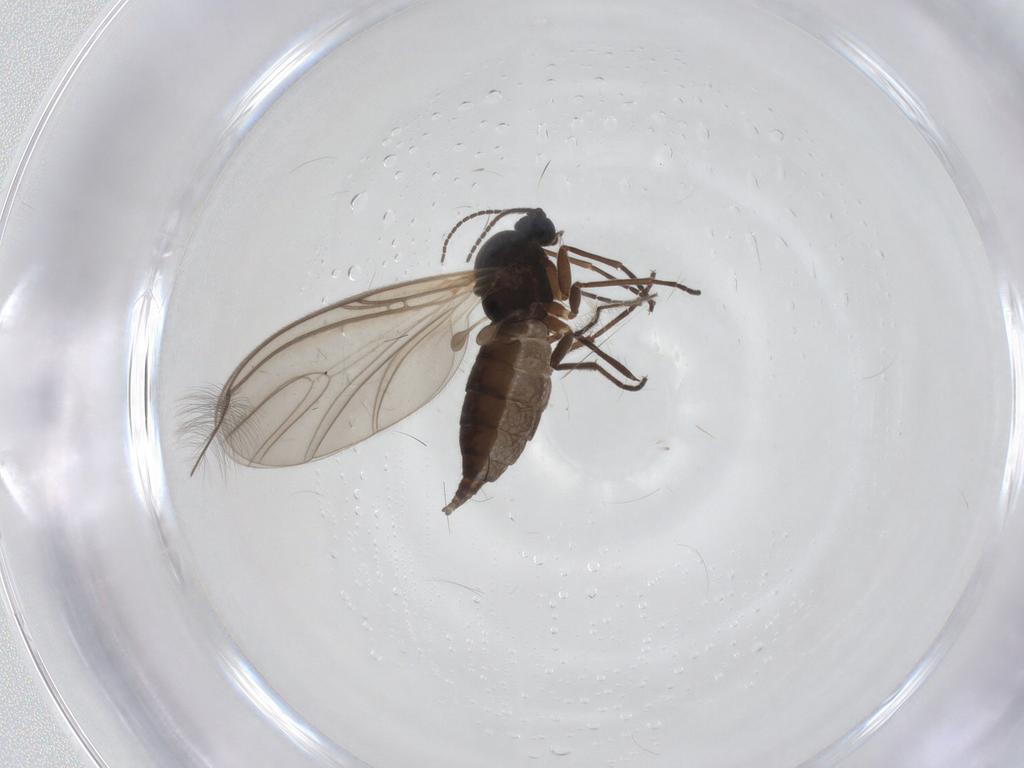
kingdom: Animalia
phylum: Arthropoda
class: Insecta
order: Diptera
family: Sciaridae
